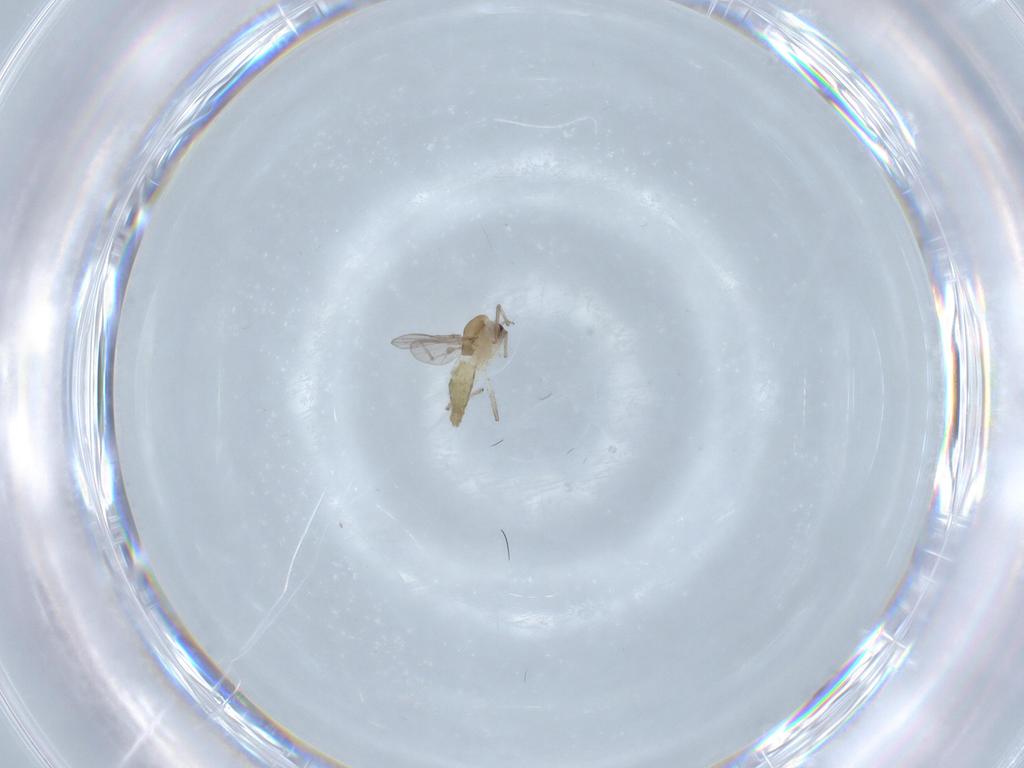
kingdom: Animalia
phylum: Arthropoda
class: Insecta
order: Diptera
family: Chironomidae
